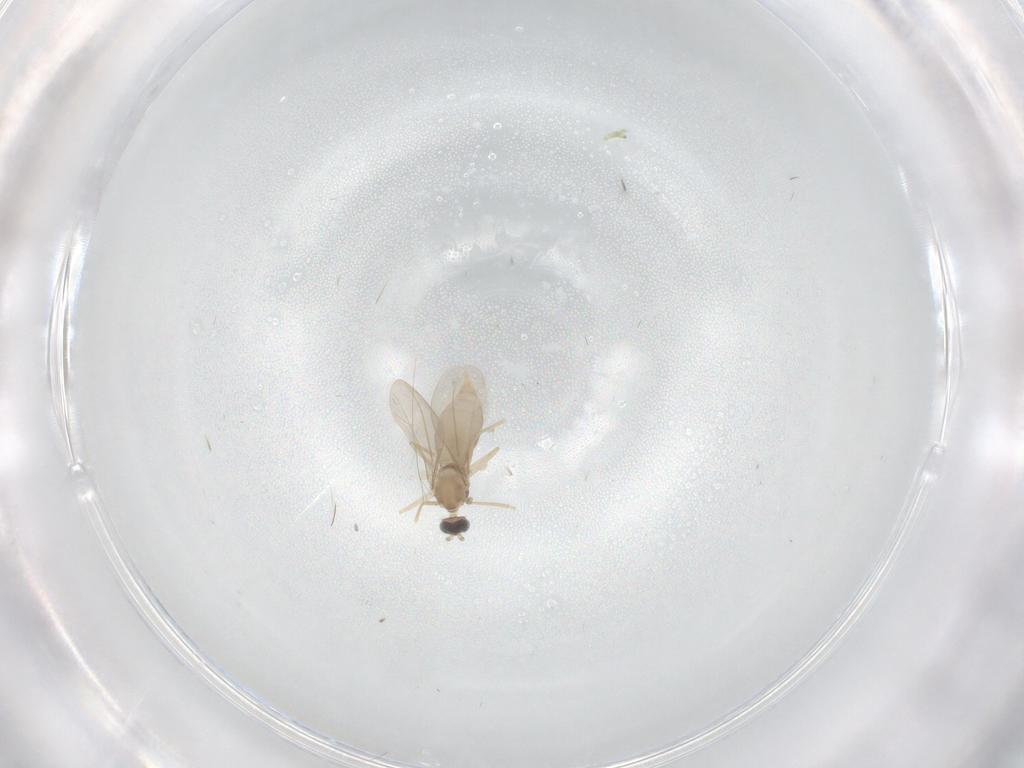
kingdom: Animalia
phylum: Arthropoda
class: Insecta
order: Diptera
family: Cecidomyiidae
